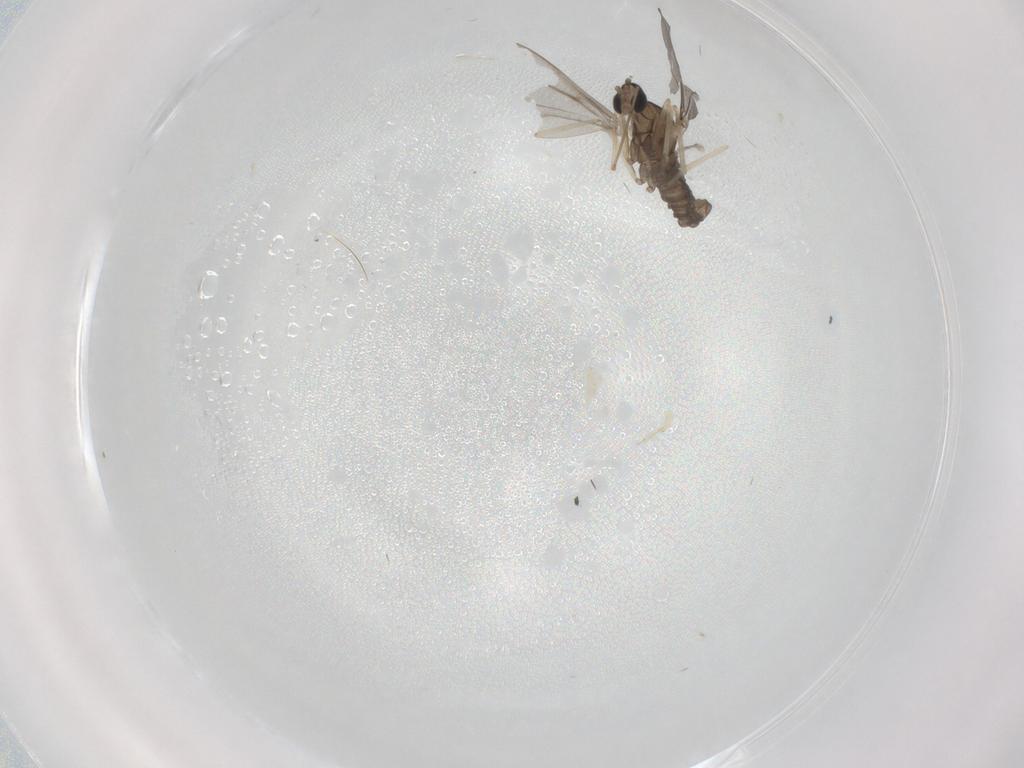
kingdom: Animalia
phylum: Arthropoda
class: Insecta
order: Diptera
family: Cecidomyiidae
